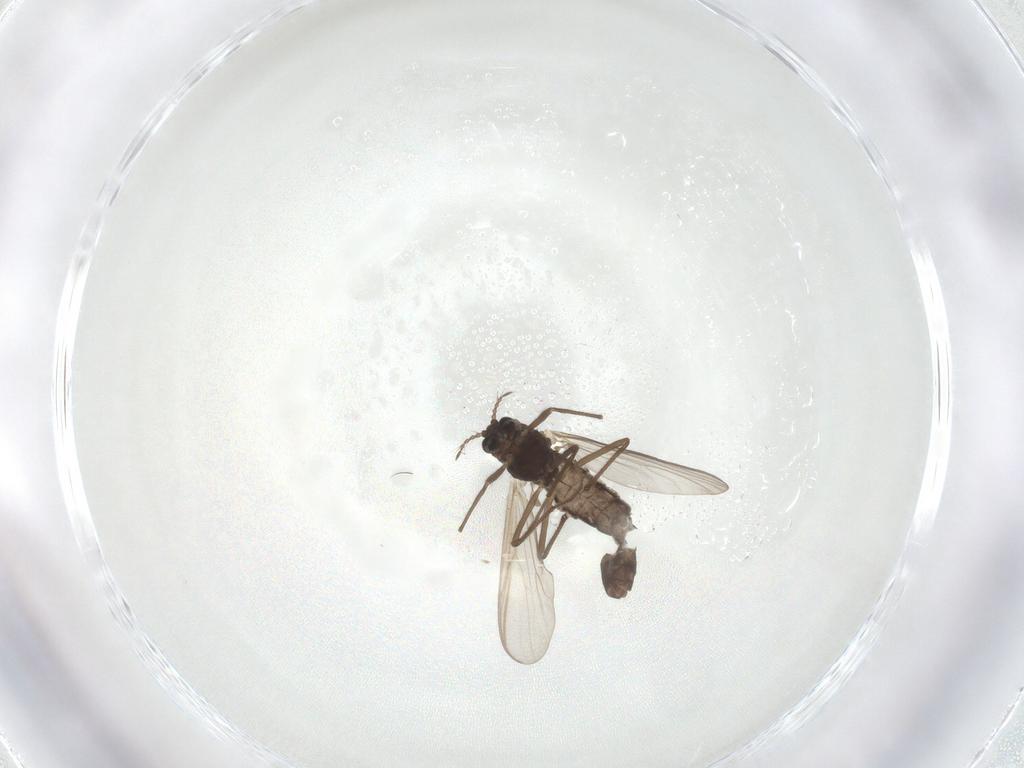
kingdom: Animalia
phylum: Arthropoda
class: Insecta
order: Diptera
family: Chironomidae
